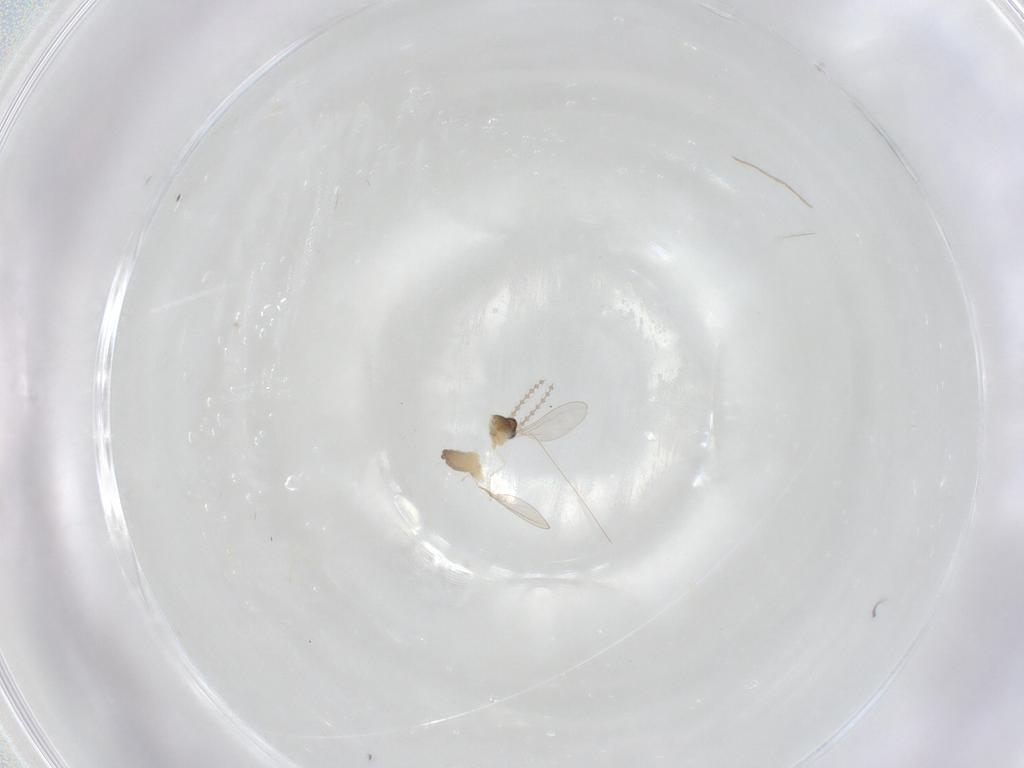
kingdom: Animalia
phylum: Arthropoda
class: Insecta
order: Diptera
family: Cecidomyiidae
